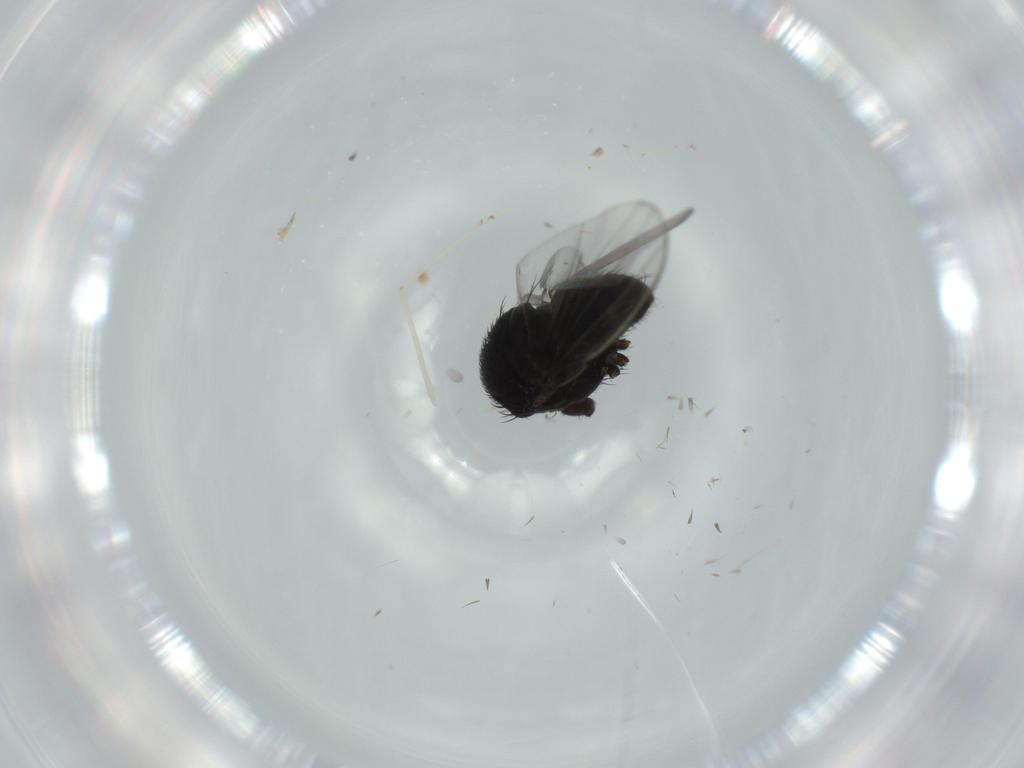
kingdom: Animalia
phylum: Arthropoda
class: Insecta
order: Diptera
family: Milichiidae
